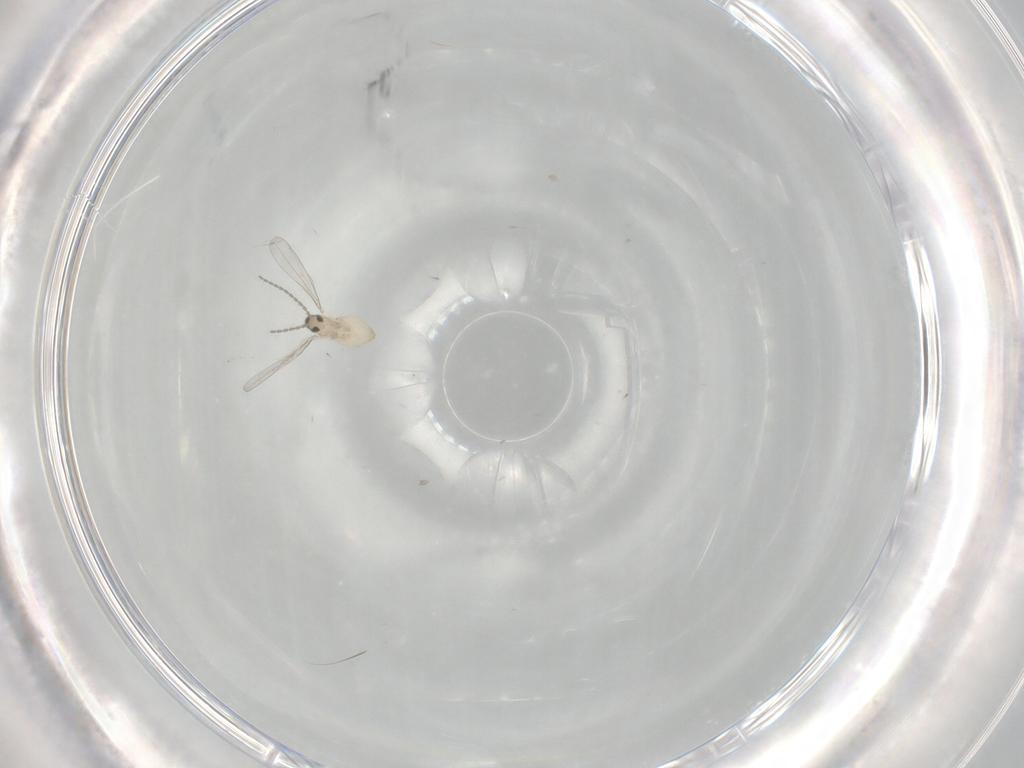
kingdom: Animalia
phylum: Arthropoda
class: Insecta
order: Diptera
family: Cecidomyiidae
